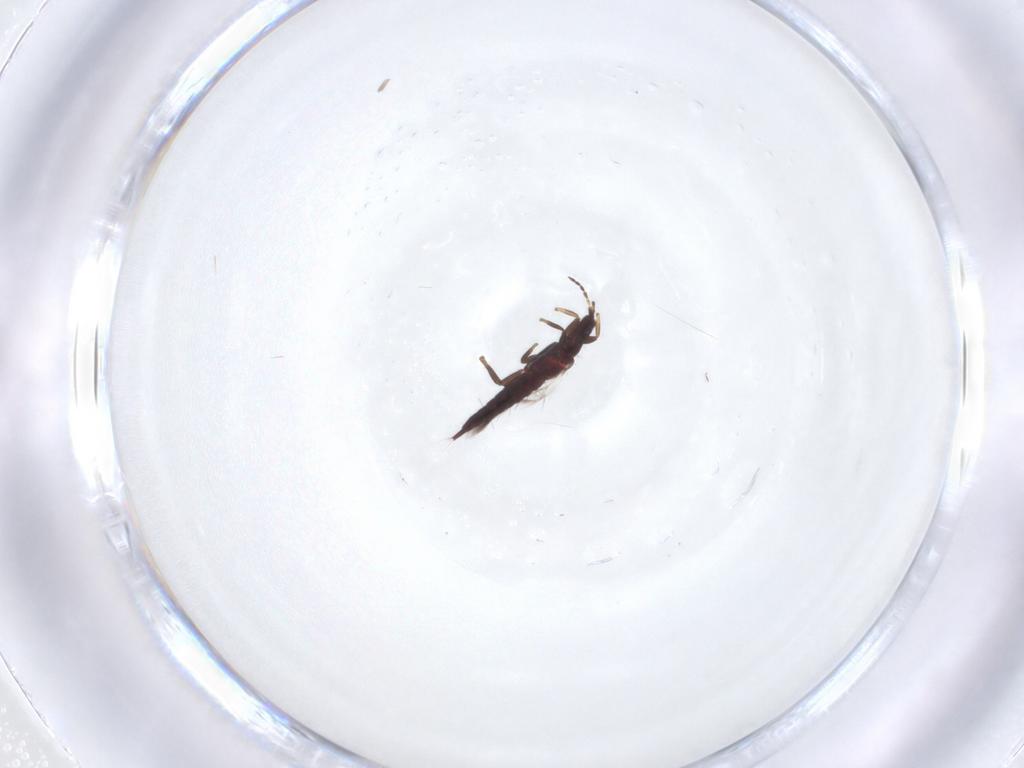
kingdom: Animalia
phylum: Arthropoda
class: Insecta
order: Thysanoptera
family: Phlaeothripidae
